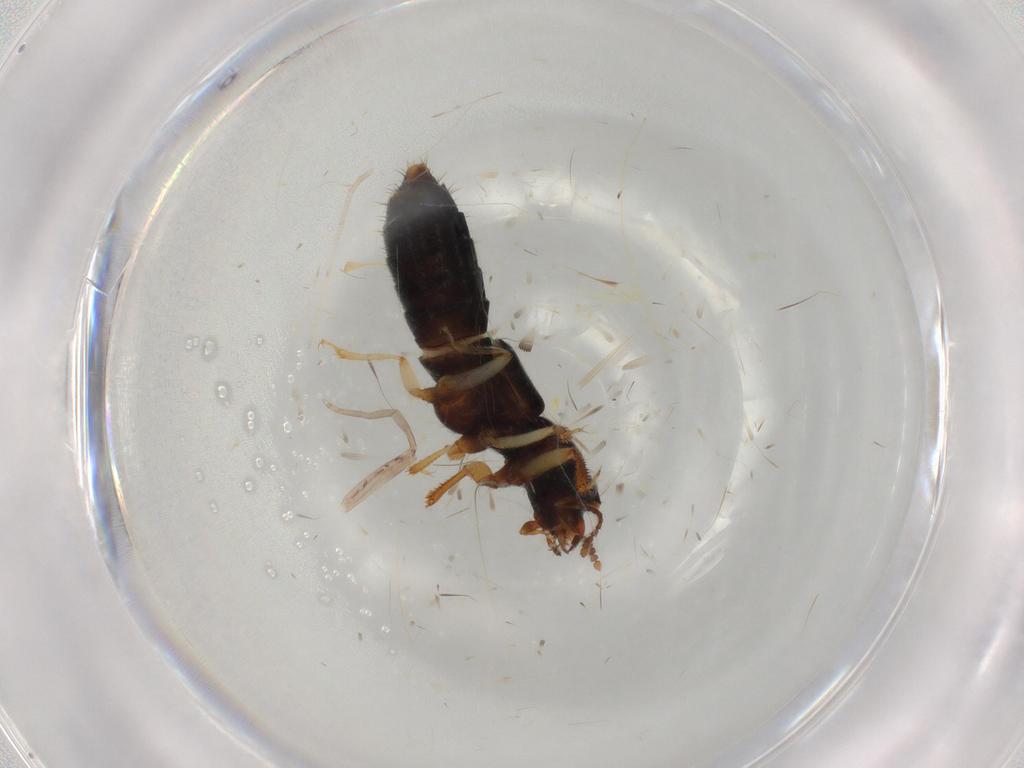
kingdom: Animalia
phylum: Arthropoda
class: Insecta
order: Coleoptera
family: Staphylinidae
